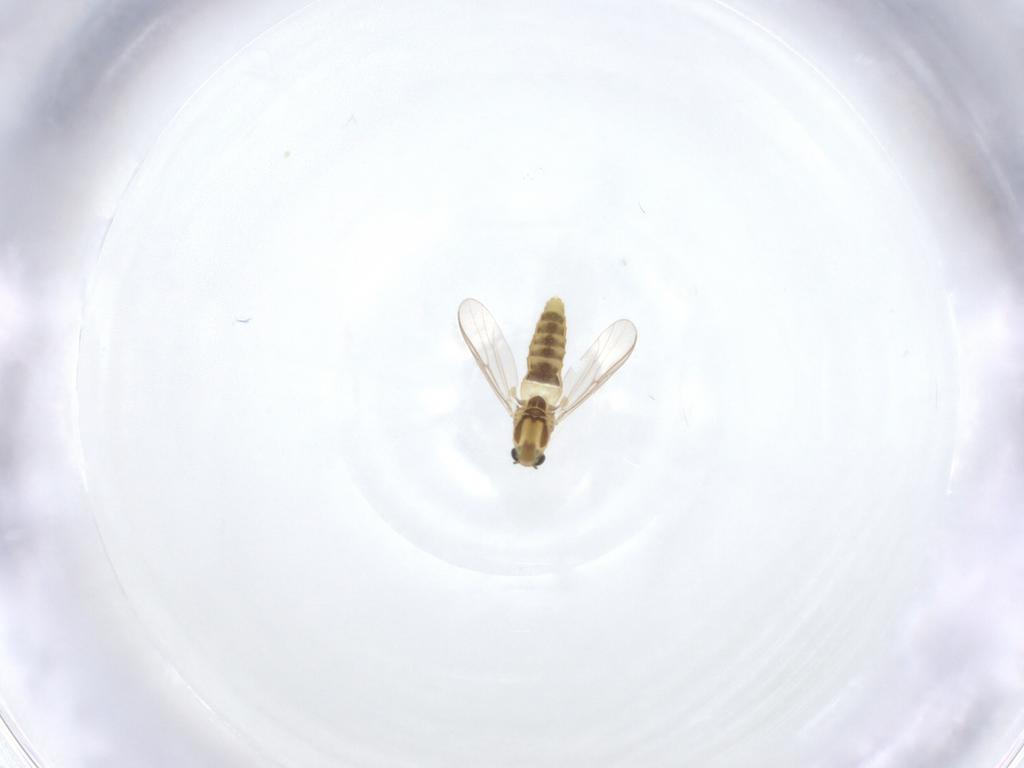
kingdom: Animalia
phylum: Arthropoda
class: Insecta
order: Diptera
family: Chironomidae
